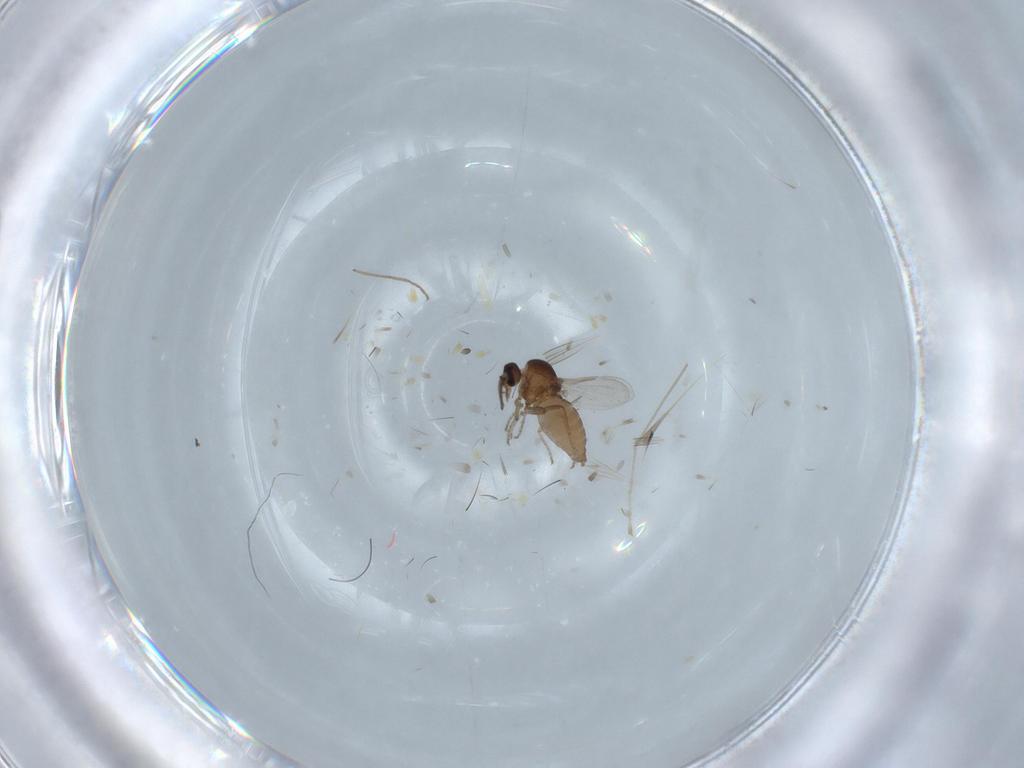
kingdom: Animalia
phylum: Arthropoda
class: Insecta
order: Diptera
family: Ceratopogonidae
